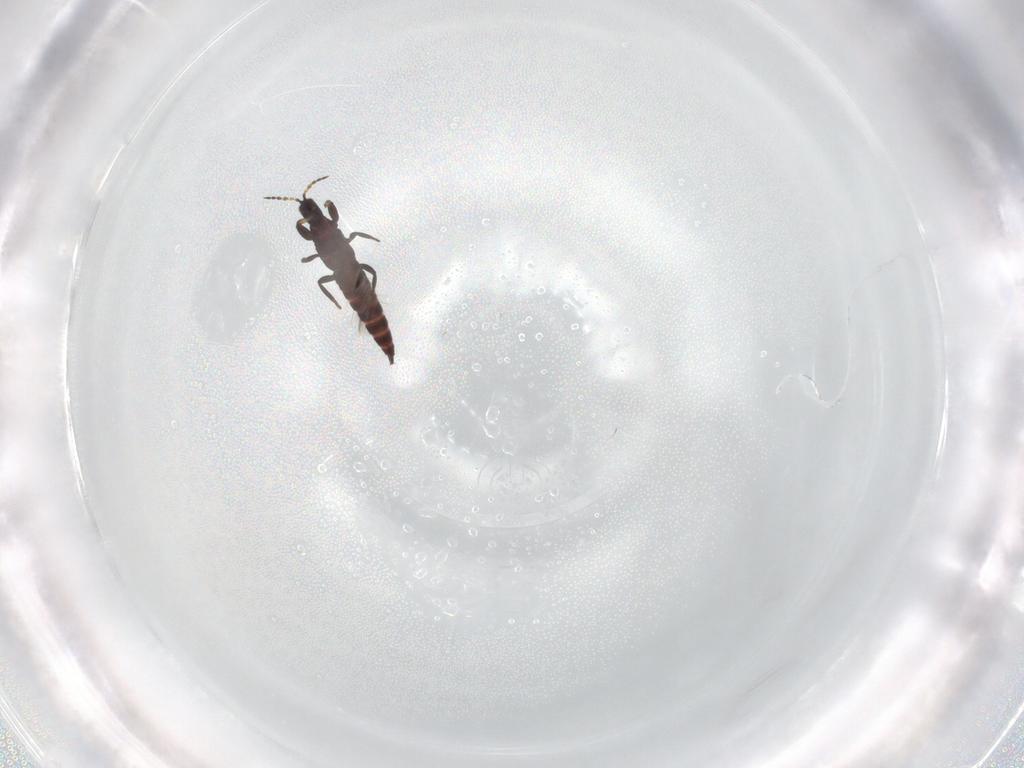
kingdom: Animalia
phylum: Arthropoda
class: Insecta
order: Thysanoptera
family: Phlaeothripidae
